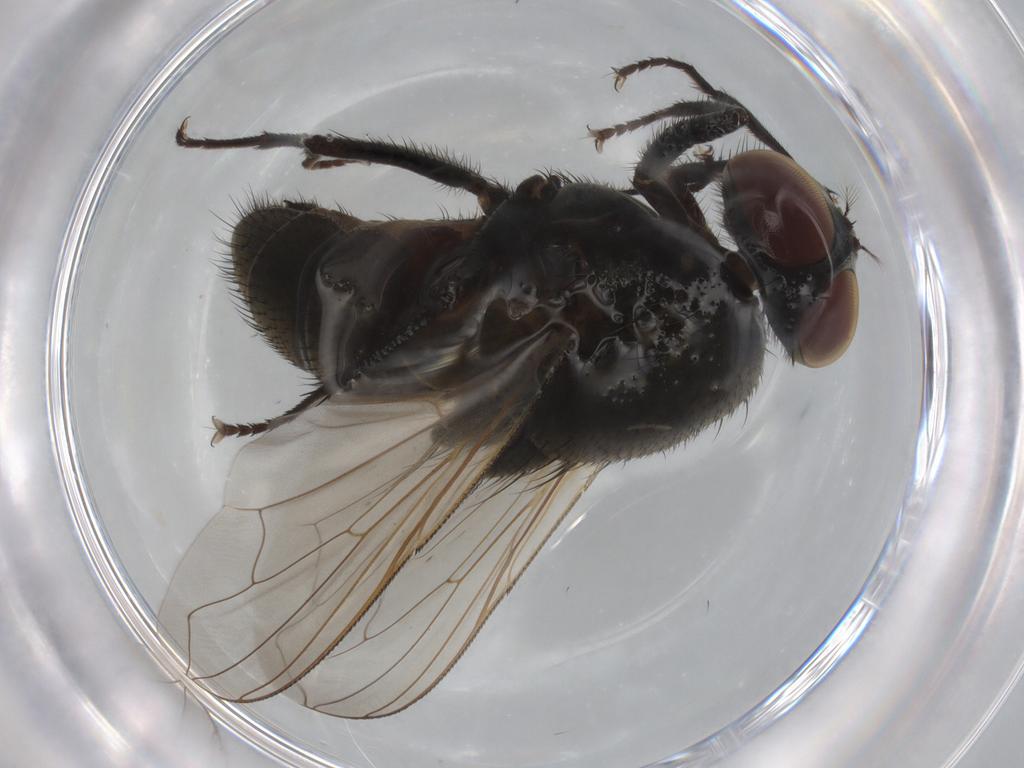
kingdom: Animalia
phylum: Arthropoda
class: Insecta
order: Diptera
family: Muscidae
